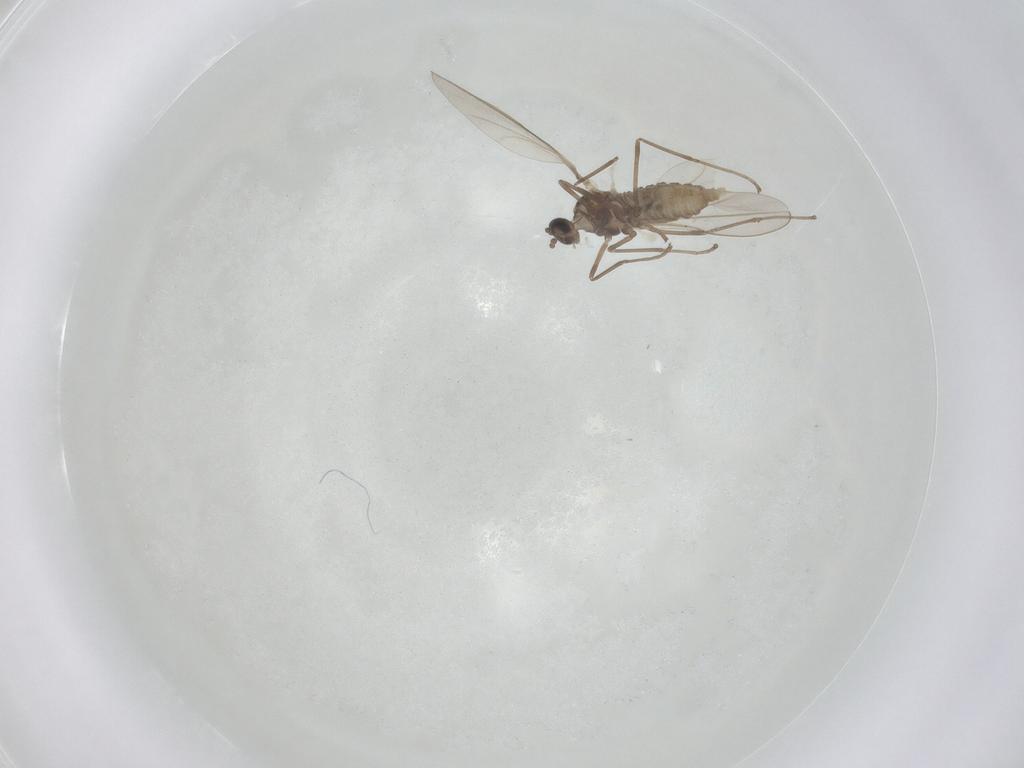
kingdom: Animalia
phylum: Arthropoda
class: Insecta
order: Diptera
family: Cecidomyiidae
